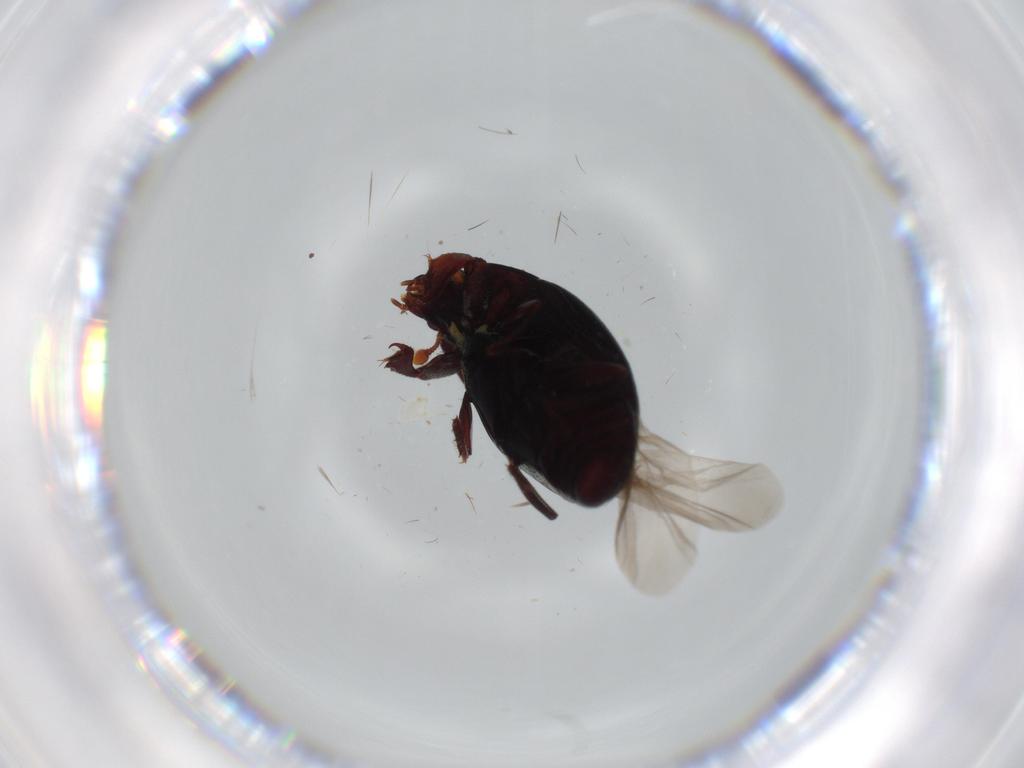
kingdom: Animalia
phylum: Arthropoda
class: Insecta
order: Coleoptera
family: Histeridae
